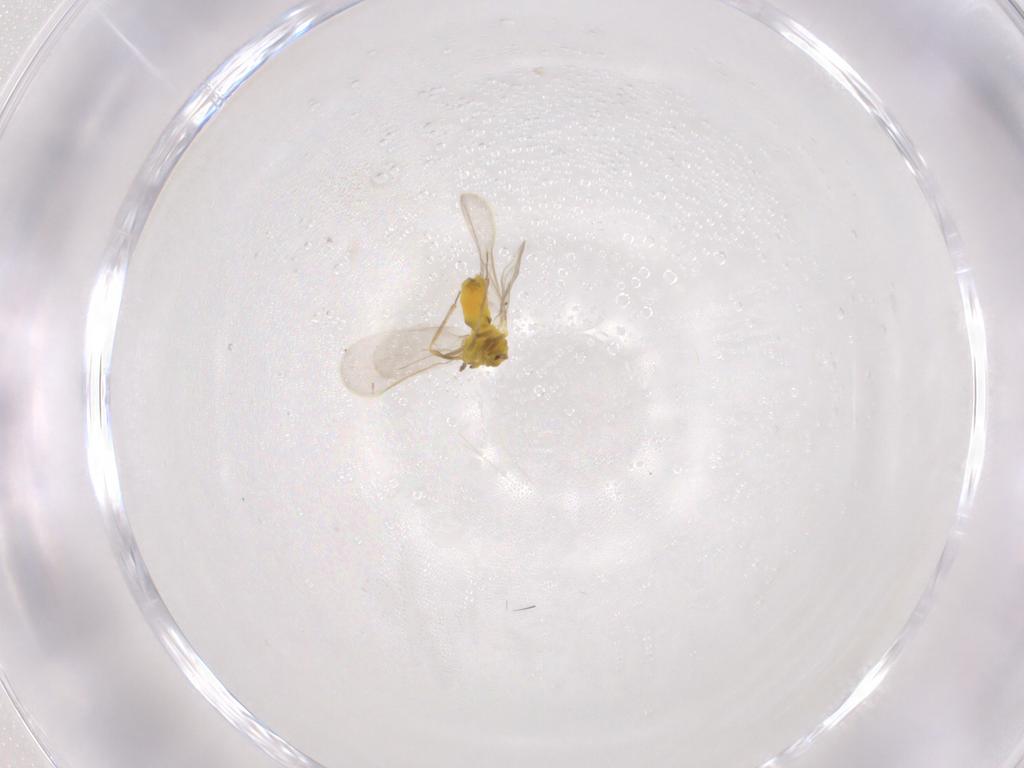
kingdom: Animalia
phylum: Arthropoda
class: Insecta
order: Hemiptera
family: Aleyrodidae
